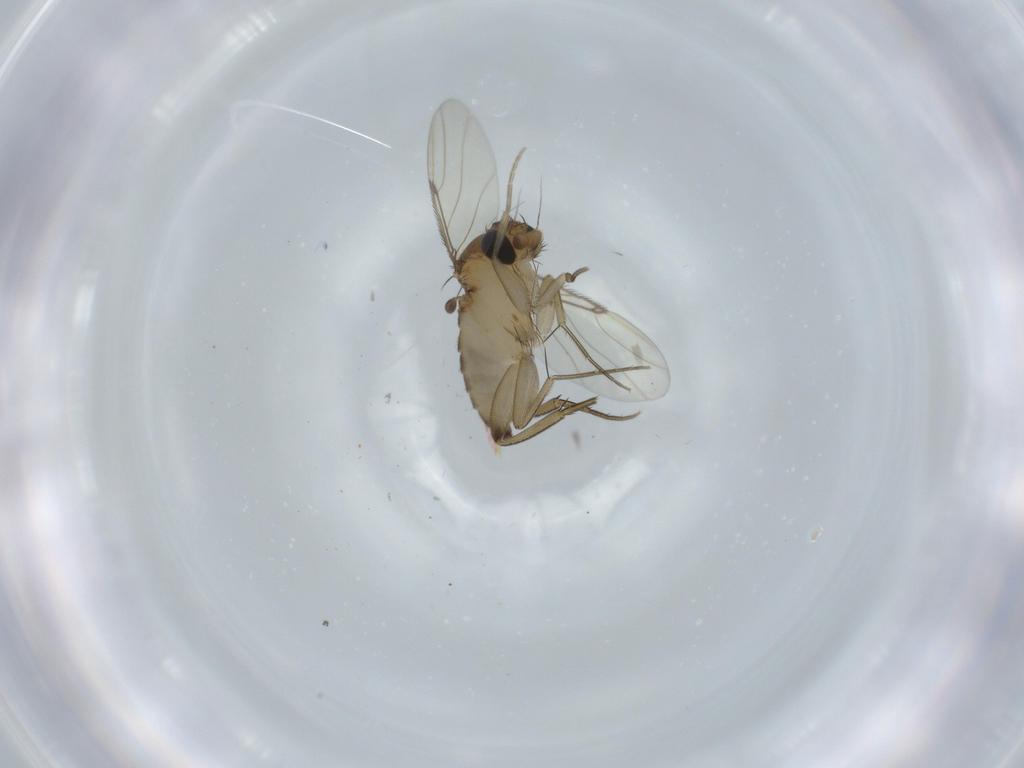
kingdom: Animalia
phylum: Arthropoda
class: Insecta
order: Diptera
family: Phoridae
